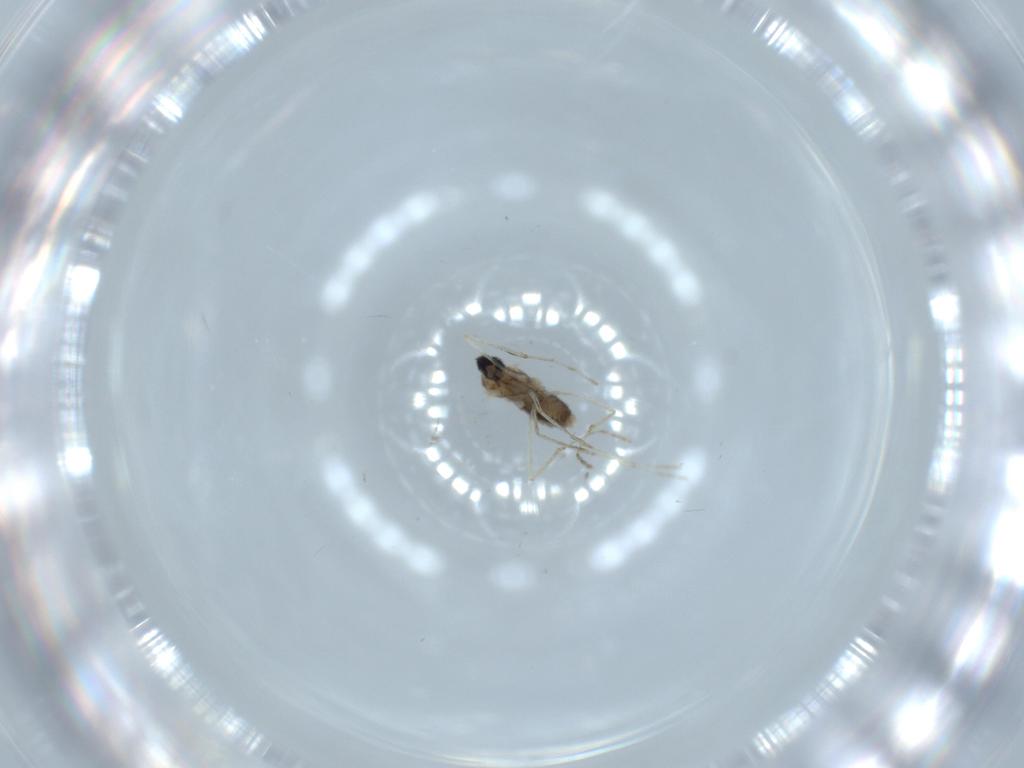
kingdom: Animalia
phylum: Arthropoda
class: Insecta
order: Diptera
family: Cecidomyiidae
